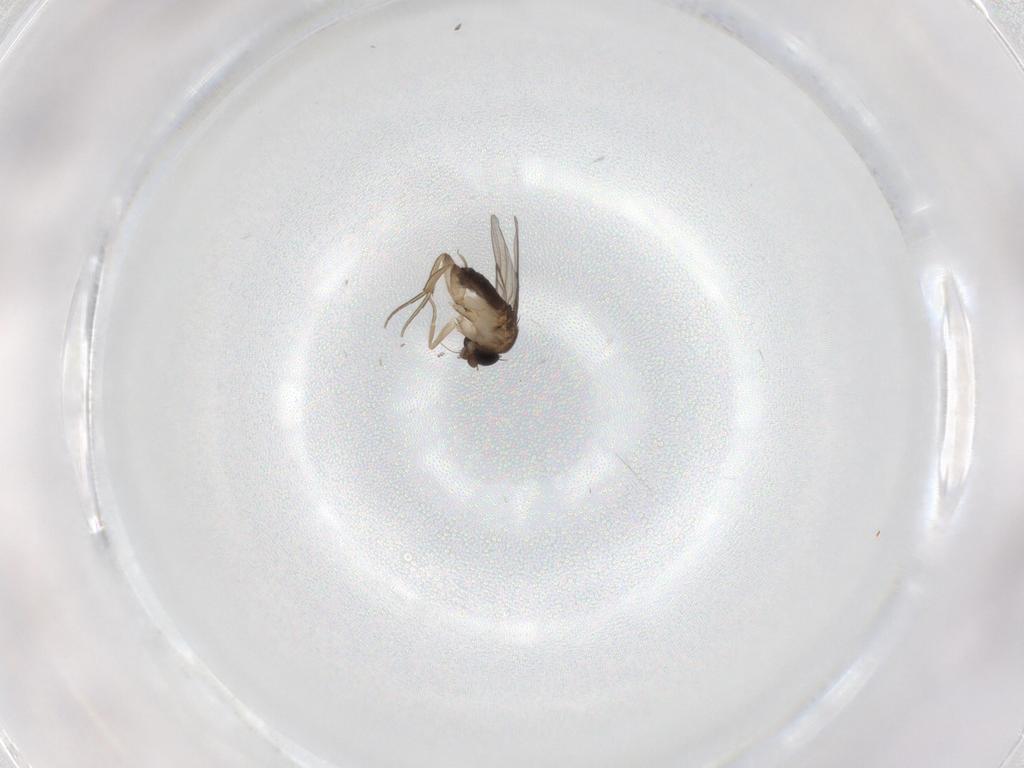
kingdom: Animalia
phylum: Arthropoda
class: Insecta
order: Diptera
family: Phoridae
